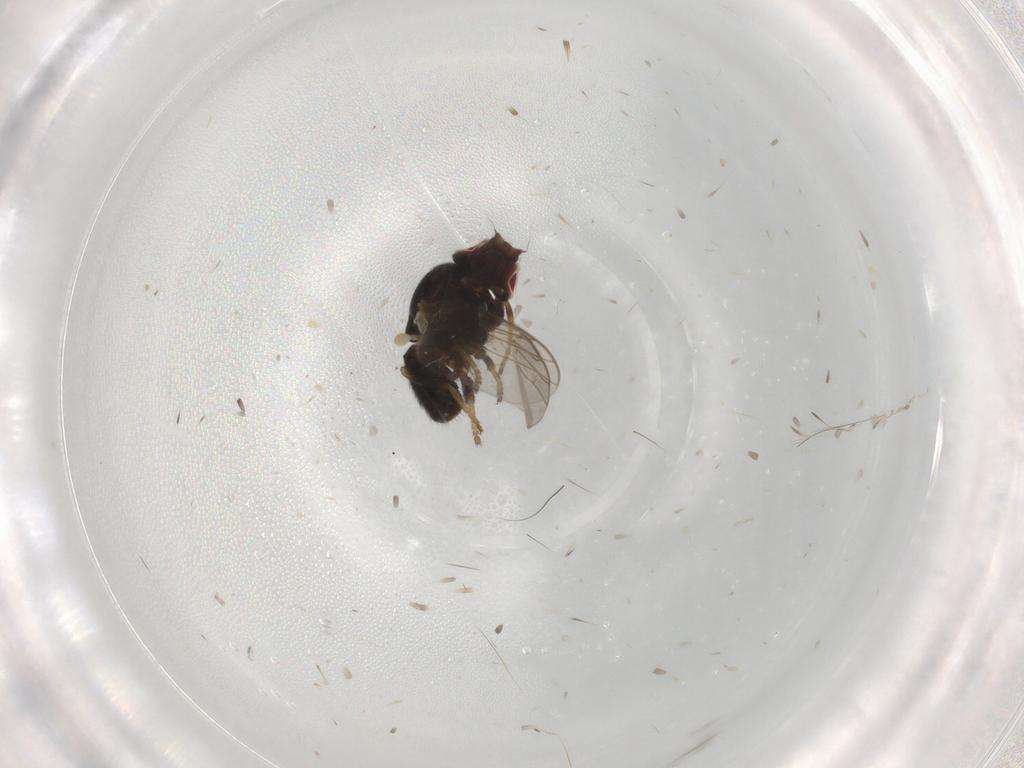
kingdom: Animalia
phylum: Arthropoda
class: Insecta
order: Diptera
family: Chloropidae
